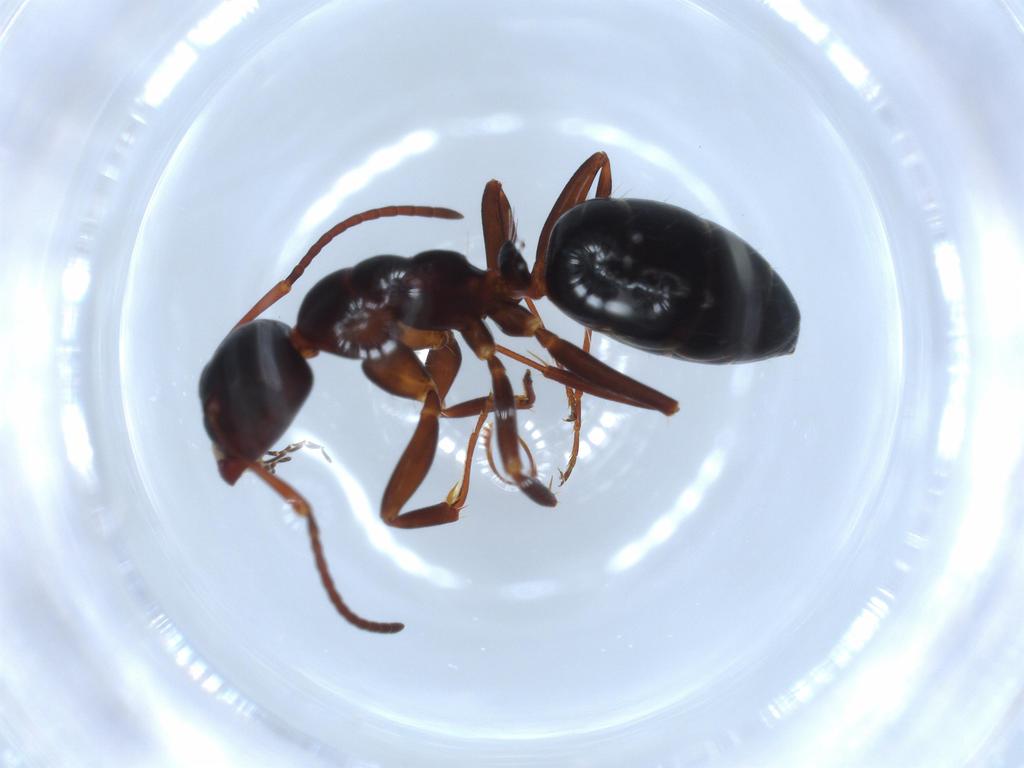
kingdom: Animalia
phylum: Arthropoda
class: Insecta
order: Hymenoptera
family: Formicidae
